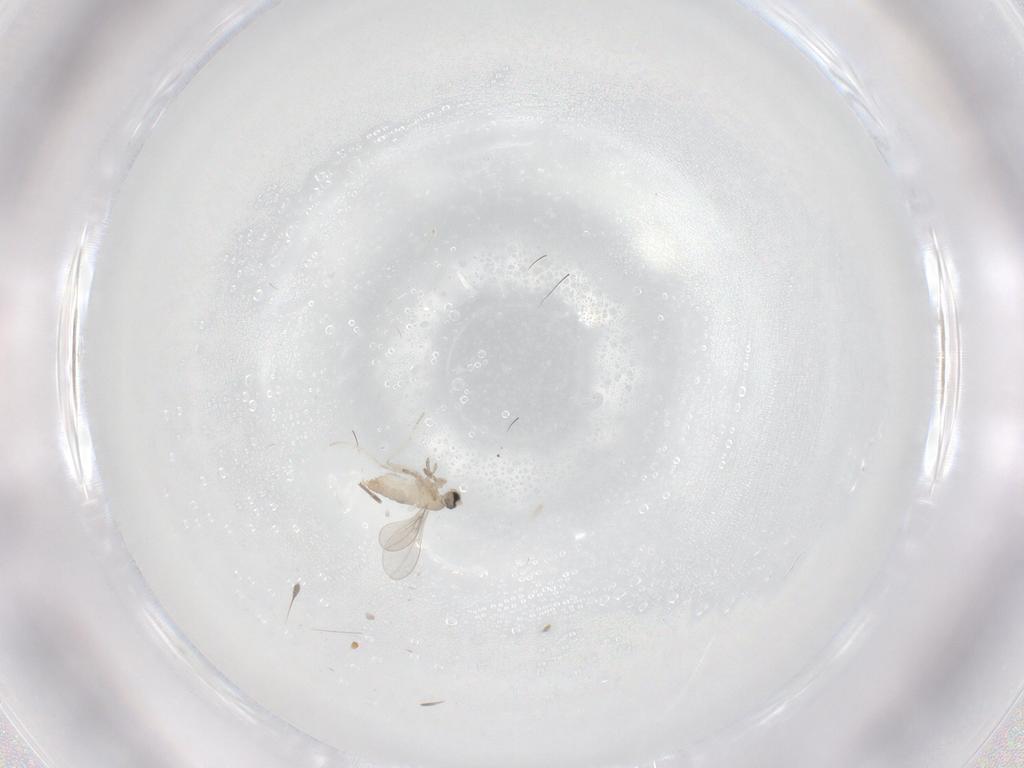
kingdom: Animalia
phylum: Arthropoda
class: Insecta
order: Diptera
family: Cecidomyiidae
